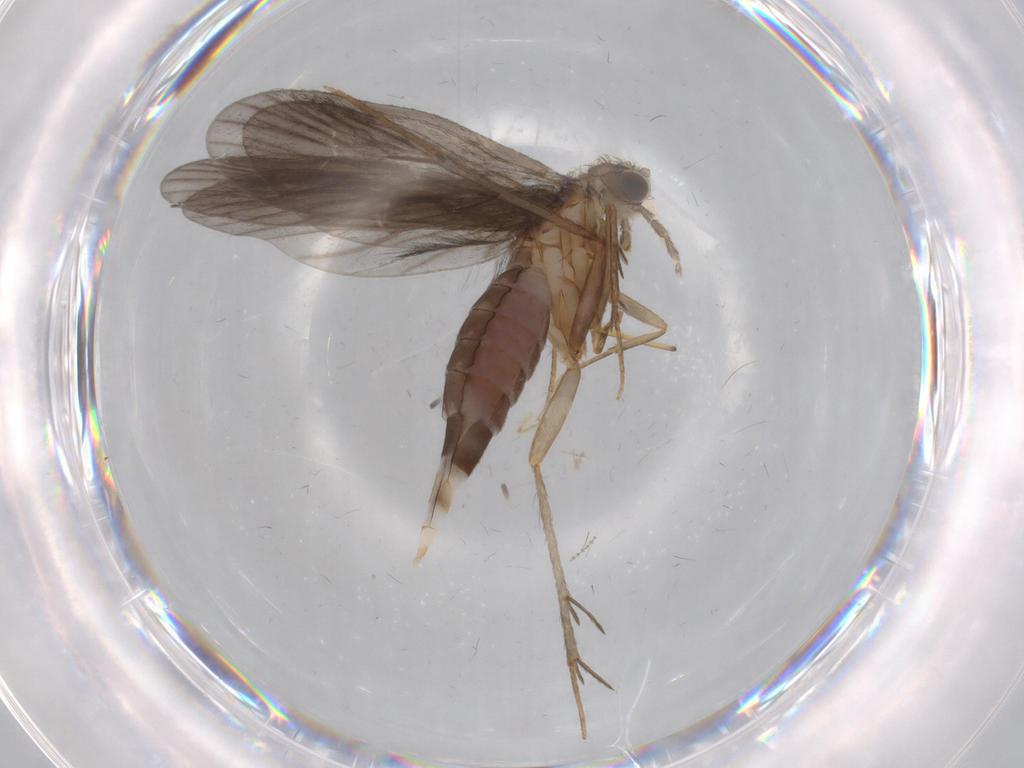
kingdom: Animalia
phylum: Arthropoda
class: Insecta
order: Trichoptera
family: Philopotamidae
